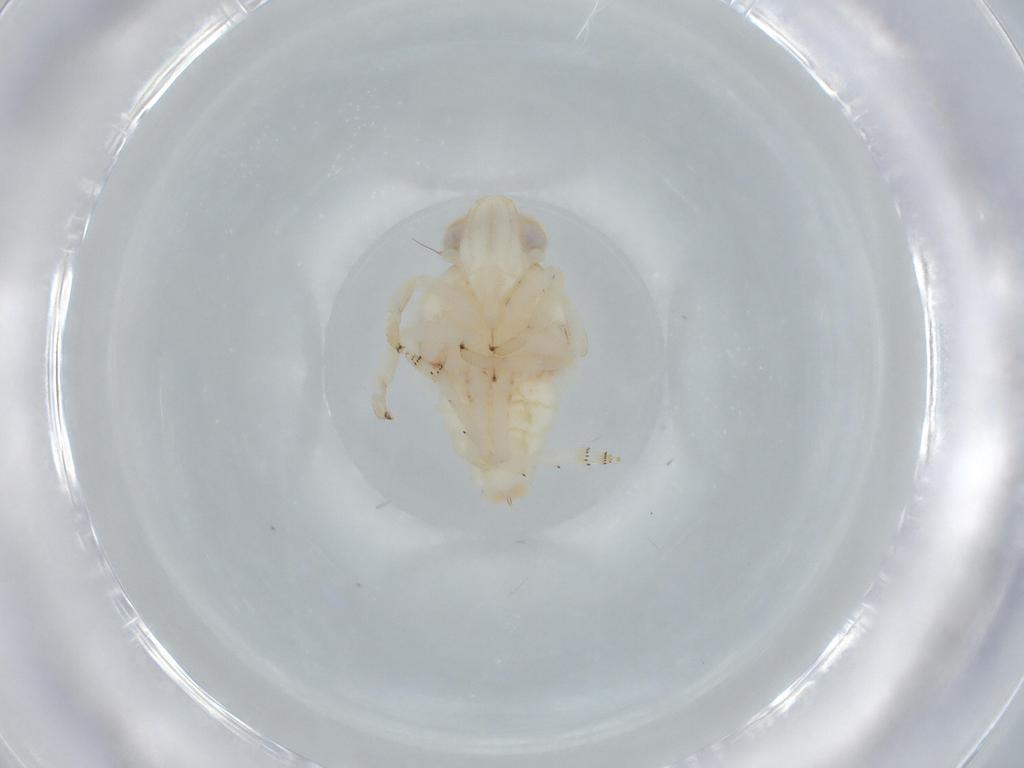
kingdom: Animalia
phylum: Arthropoda
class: Insecta
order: Hemiptera
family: Nogodinidae
